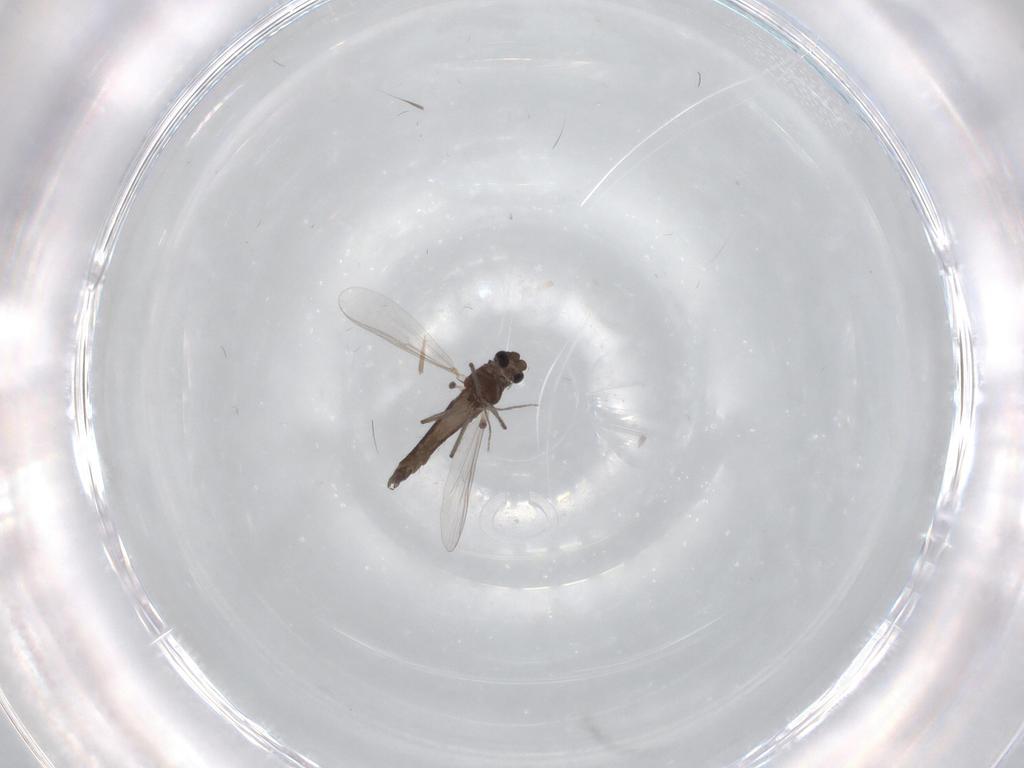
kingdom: Animalia
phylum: Arthropoda
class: Insecta
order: Diptera
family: Chironomidae
